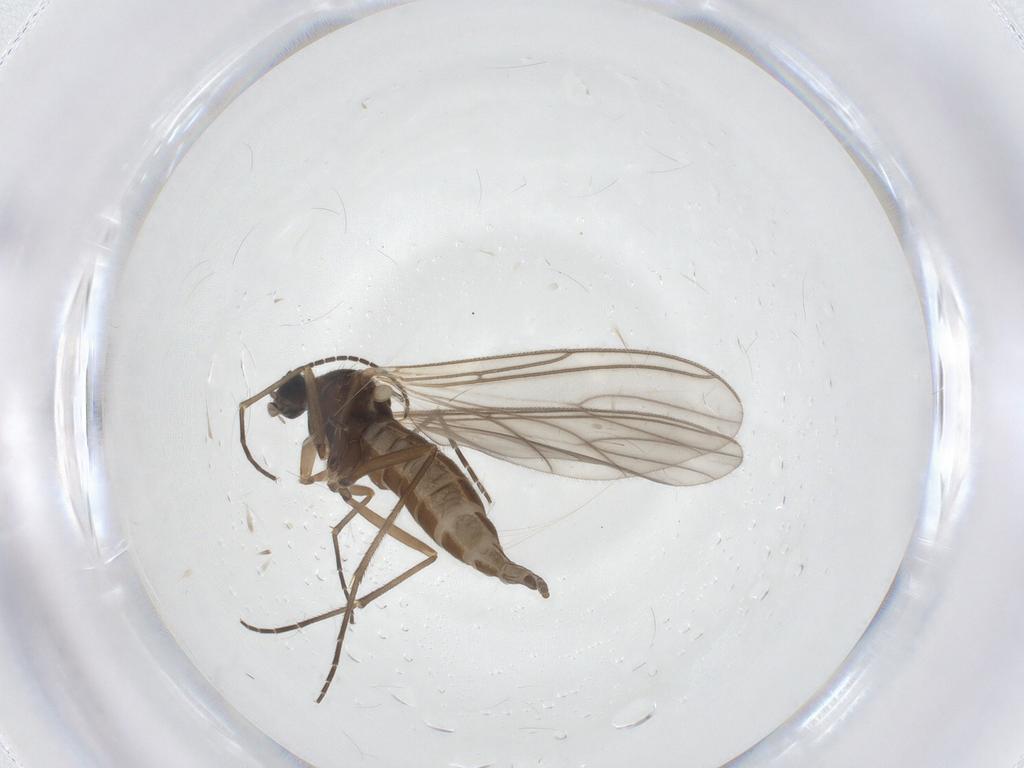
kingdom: Animalia
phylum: Arthropoda
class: Insecta
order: Diptera
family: Sciaridae
